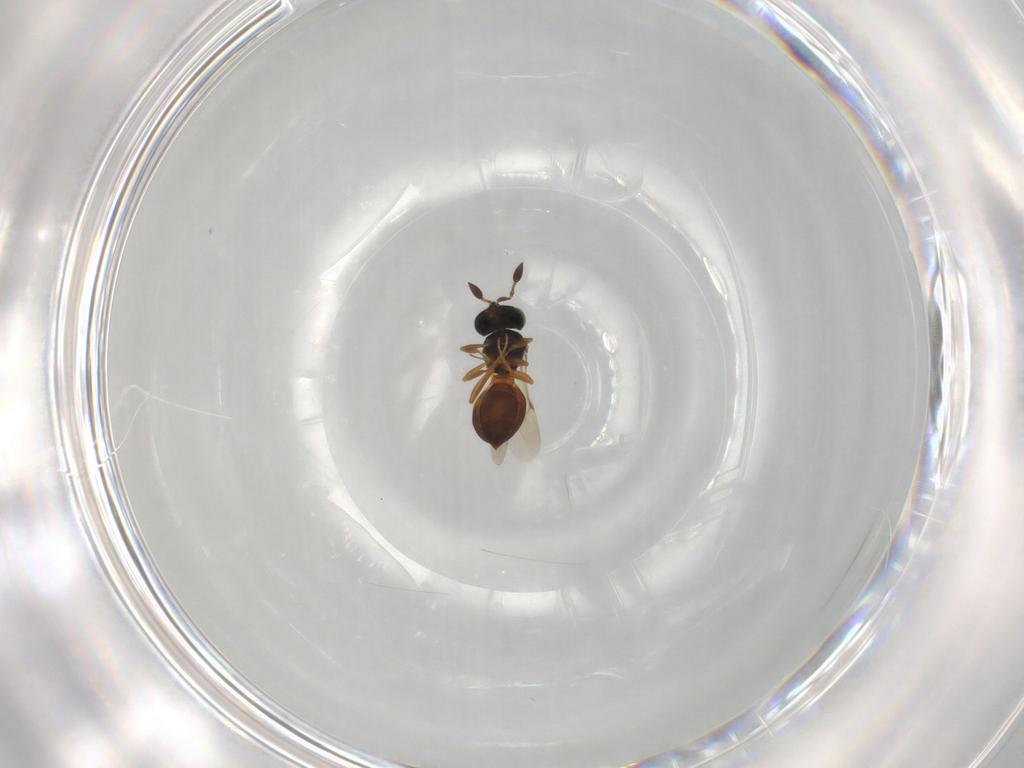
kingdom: Animalia
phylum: Arthropoda
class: Insecta
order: Hymenoptera
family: Scelionidae
